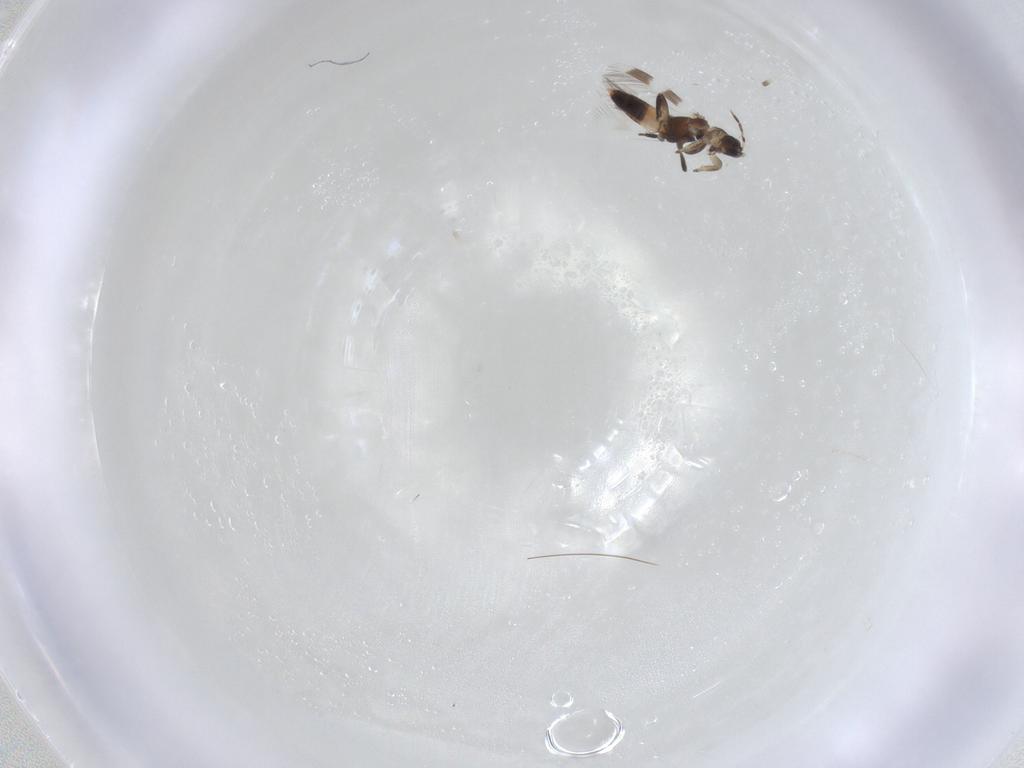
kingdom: Animalia
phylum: Arthropoda
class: Insecta
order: Thysanoptera
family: Aeolothripidae
